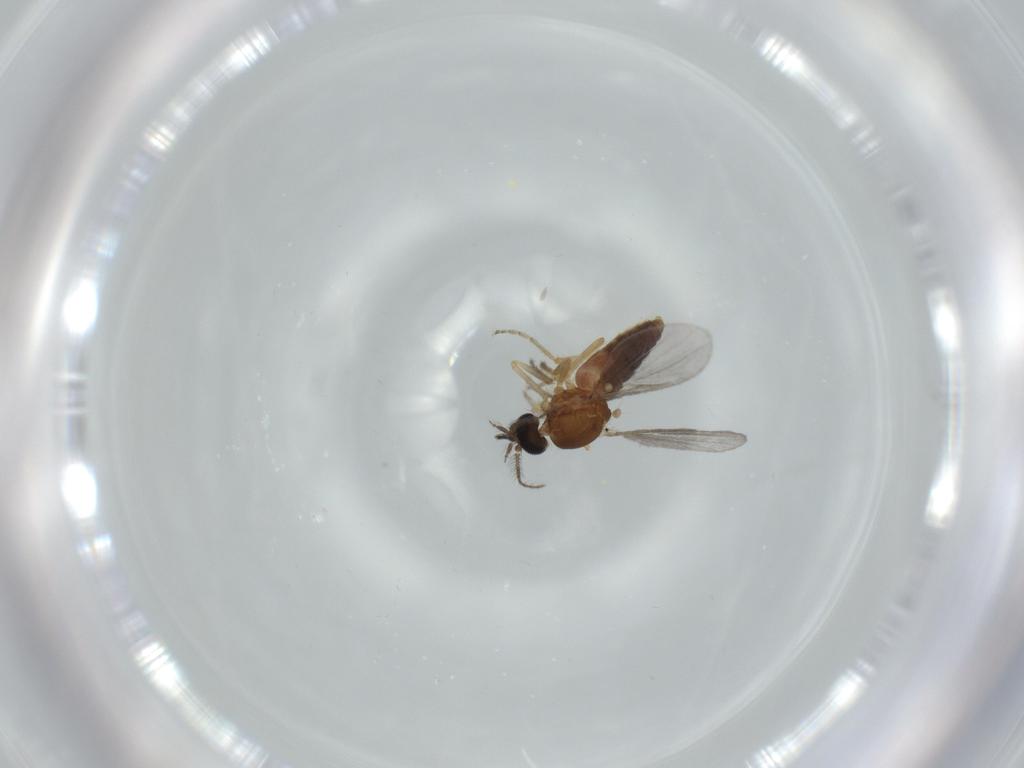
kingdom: Animalia
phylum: Arthropoda
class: Insecta
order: Diptera
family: Ceratopogonidae
